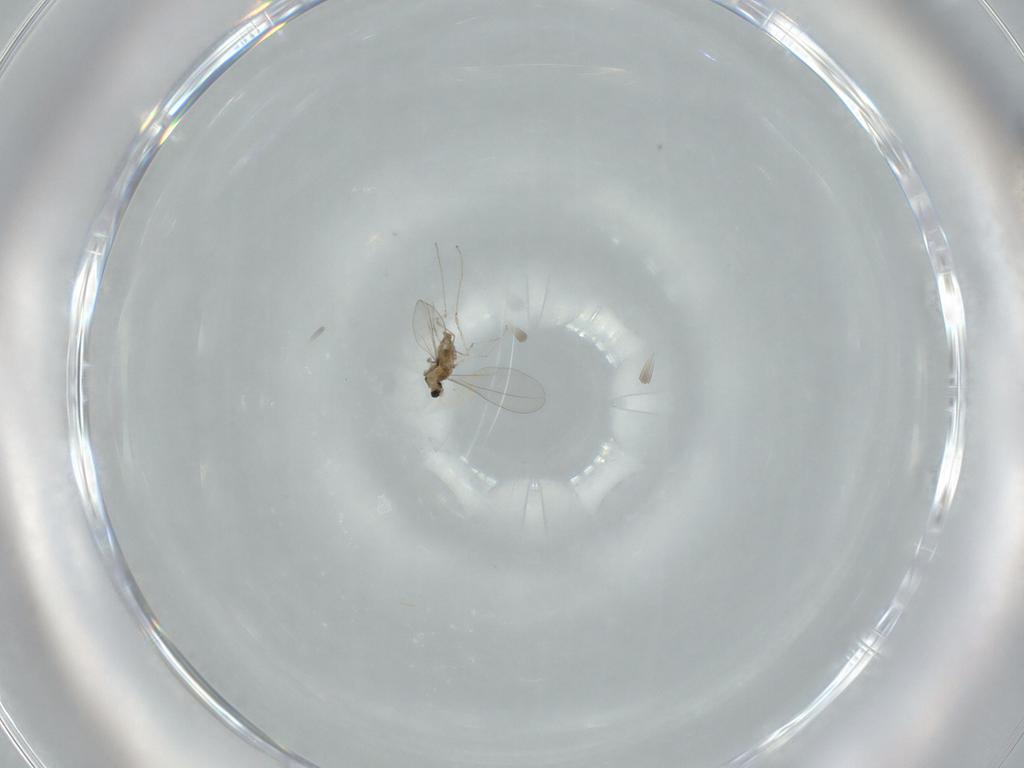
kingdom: Animalia
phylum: Arthropoda
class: Insecta
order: Diptera
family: Cecidomyiidae
